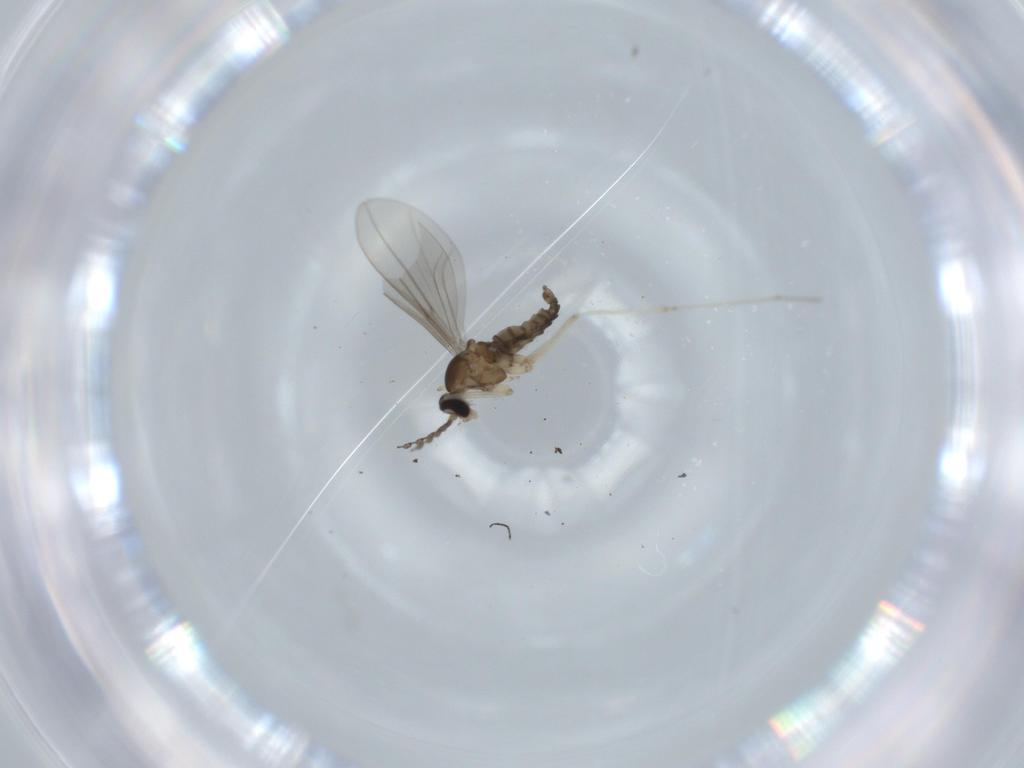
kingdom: Animalia
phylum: Arthropoda
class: Insecta
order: Diptera
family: Cecidomyiidae
